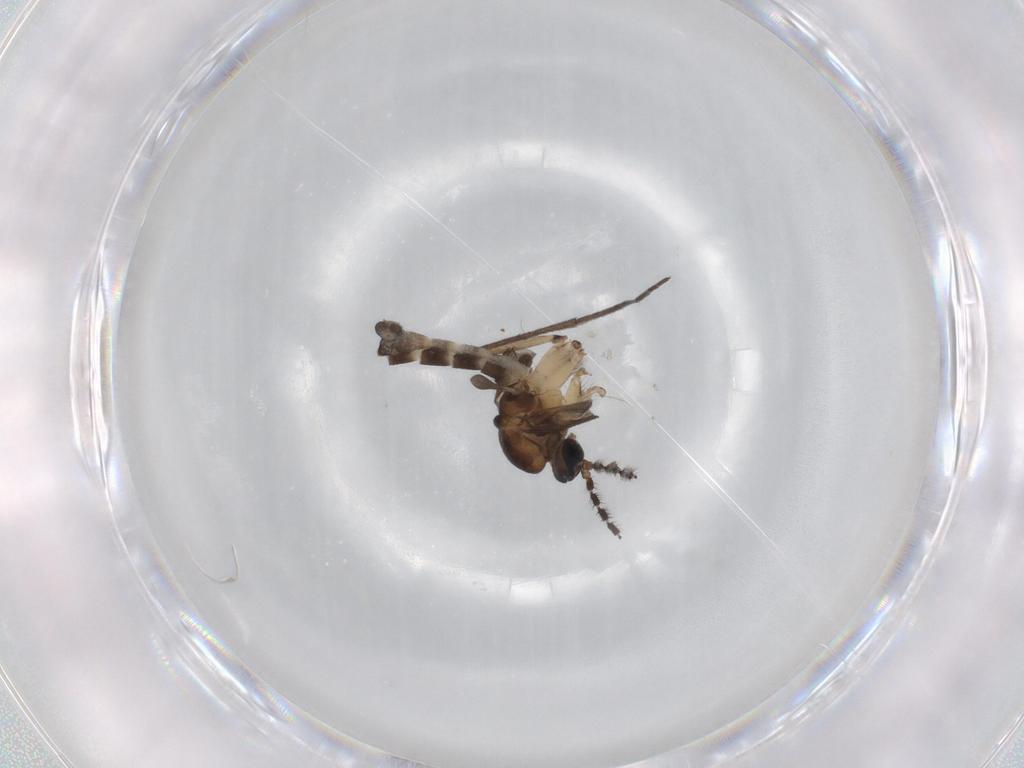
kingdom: Animalia
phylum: Arthropoda
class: Insecta
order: Diptera
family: Sciaridae
